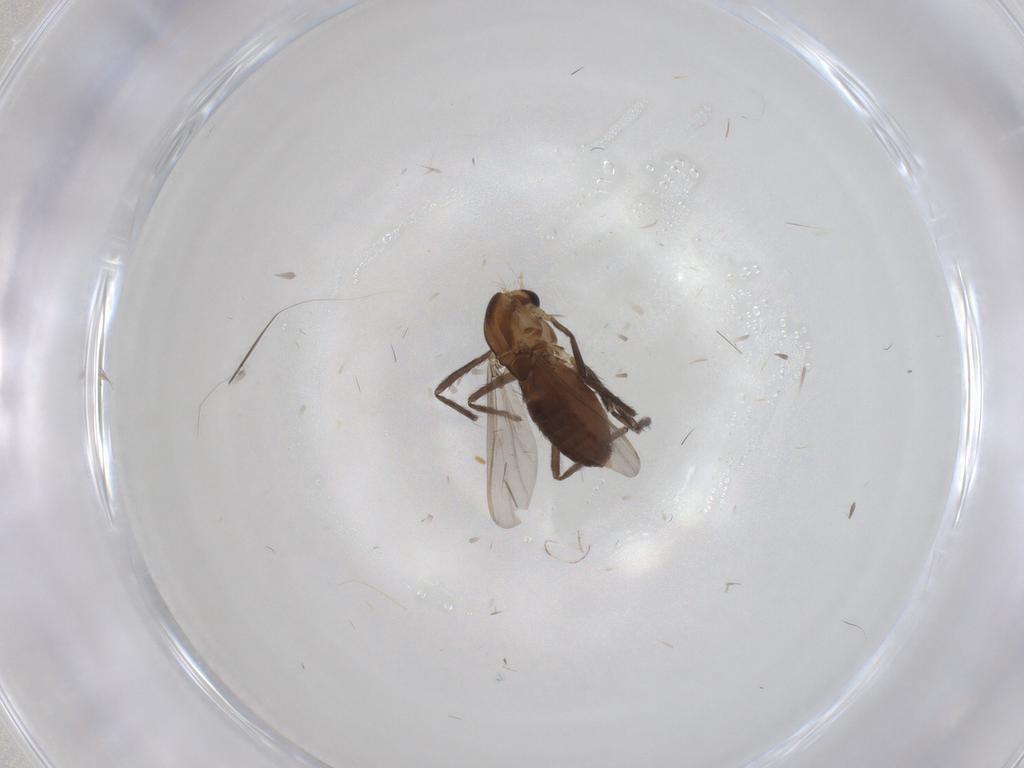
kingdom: Animalia
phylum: Arthropoda
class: Insecta
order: Diptera
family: Chironomidae
